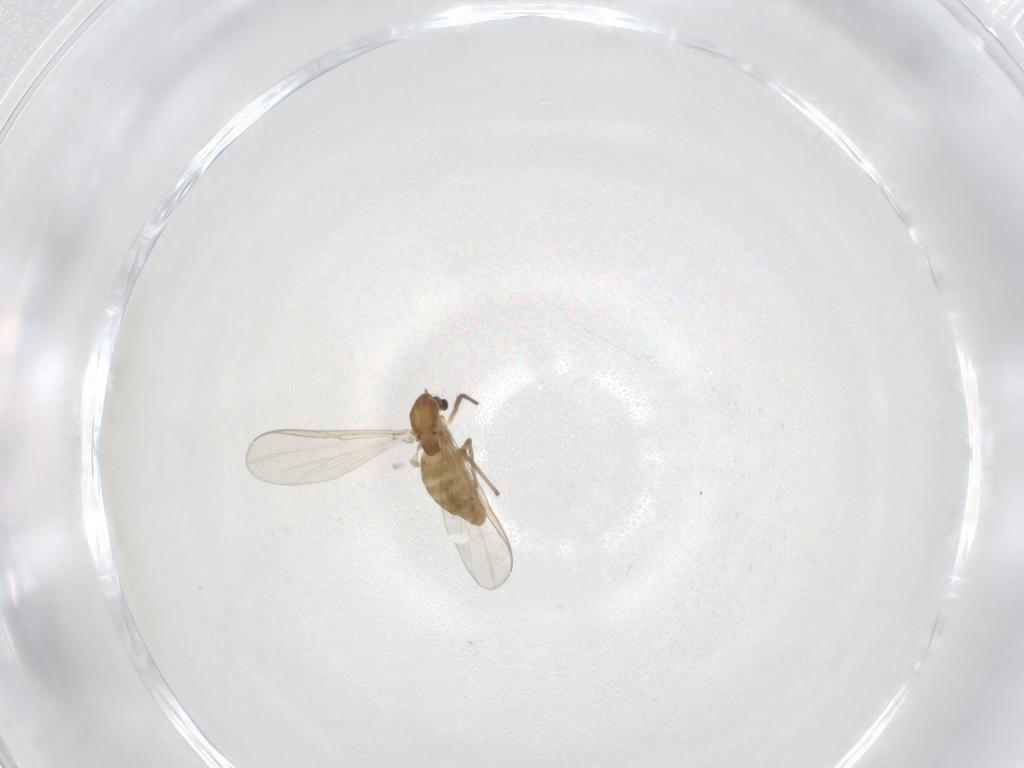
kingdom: Animalia
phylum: Arthropoda
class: Insecta
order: Diptera
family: Chironomidae
